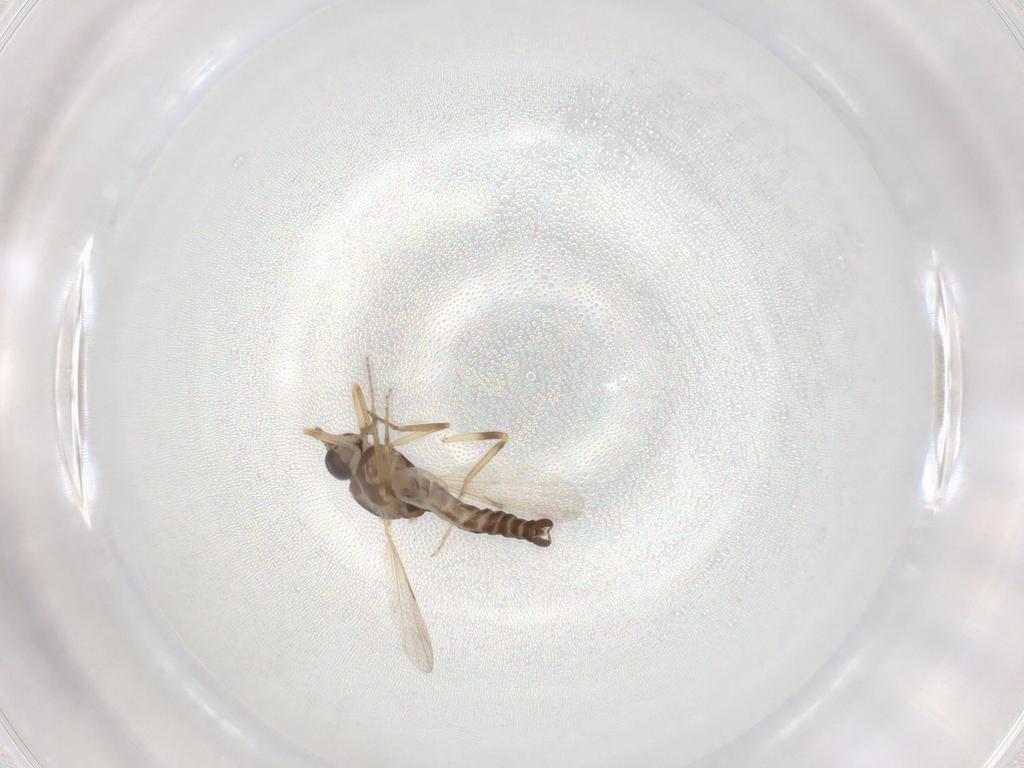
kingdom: Animalia
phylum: Arthropoda
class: Insecta
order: Diptera
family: Ceratopogonidae
